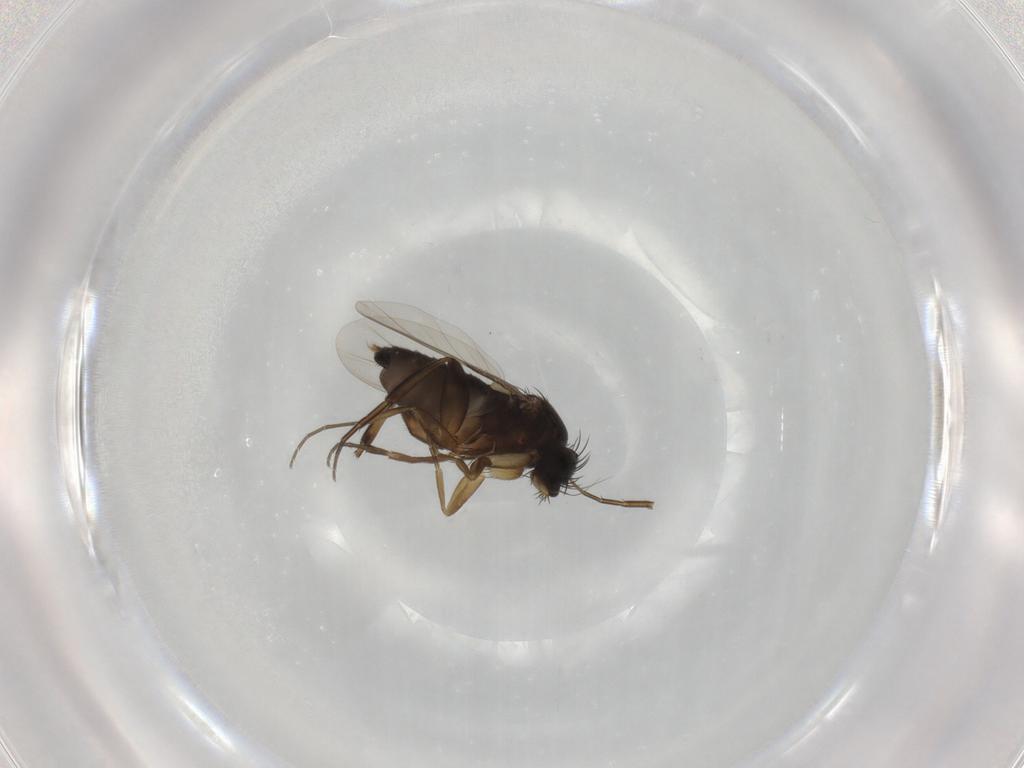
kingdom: Animalia
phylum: Arthropoda
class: Insecta
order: Diptera
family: Phoridae
